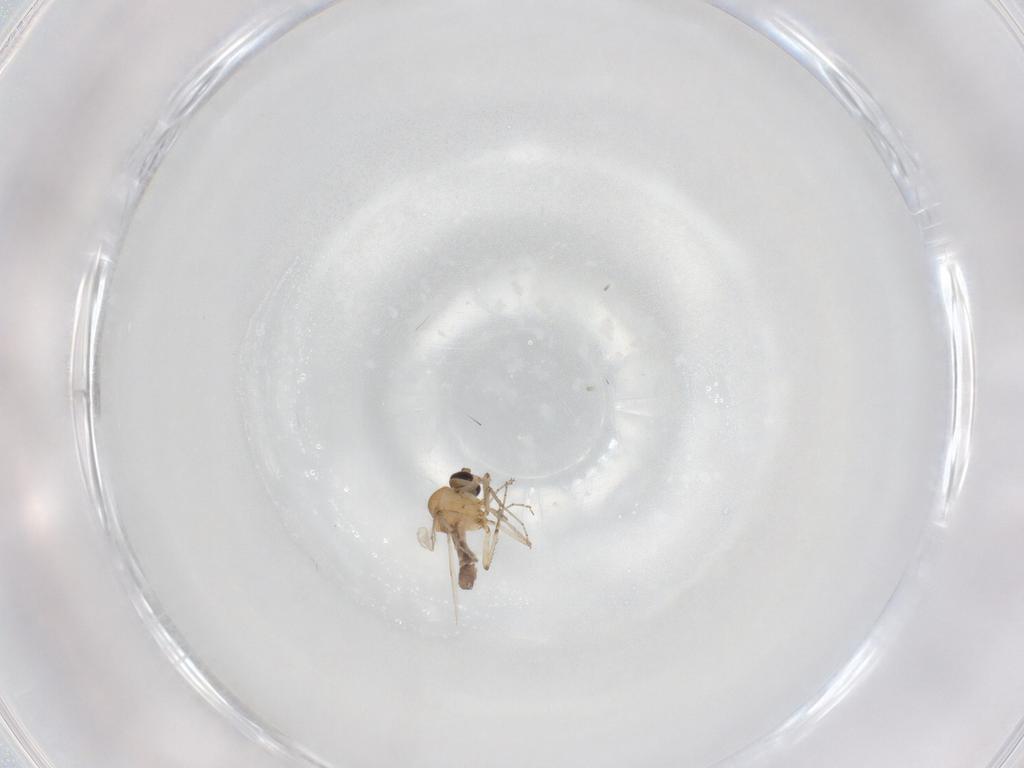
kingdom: Animalia
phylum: Arthropoda
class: Insecta
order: Diptera
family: Ceratopogonidae
